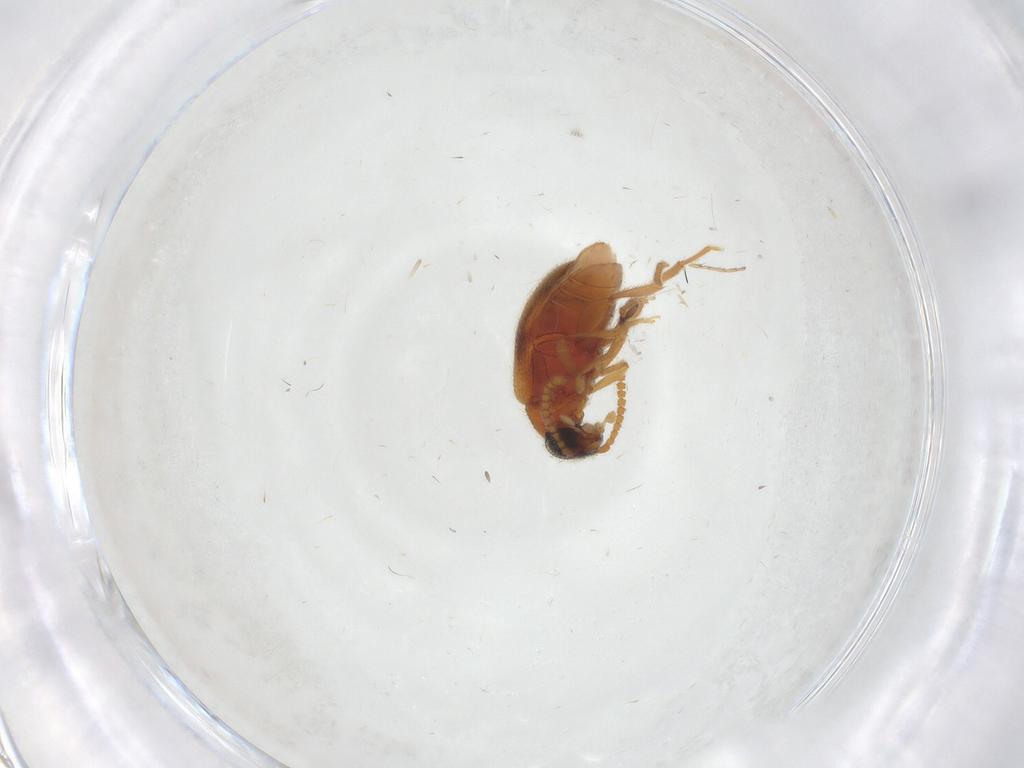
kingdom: Animalia
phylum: Arthropoda
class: Insecta
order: Coleoptera
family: Aderidae
